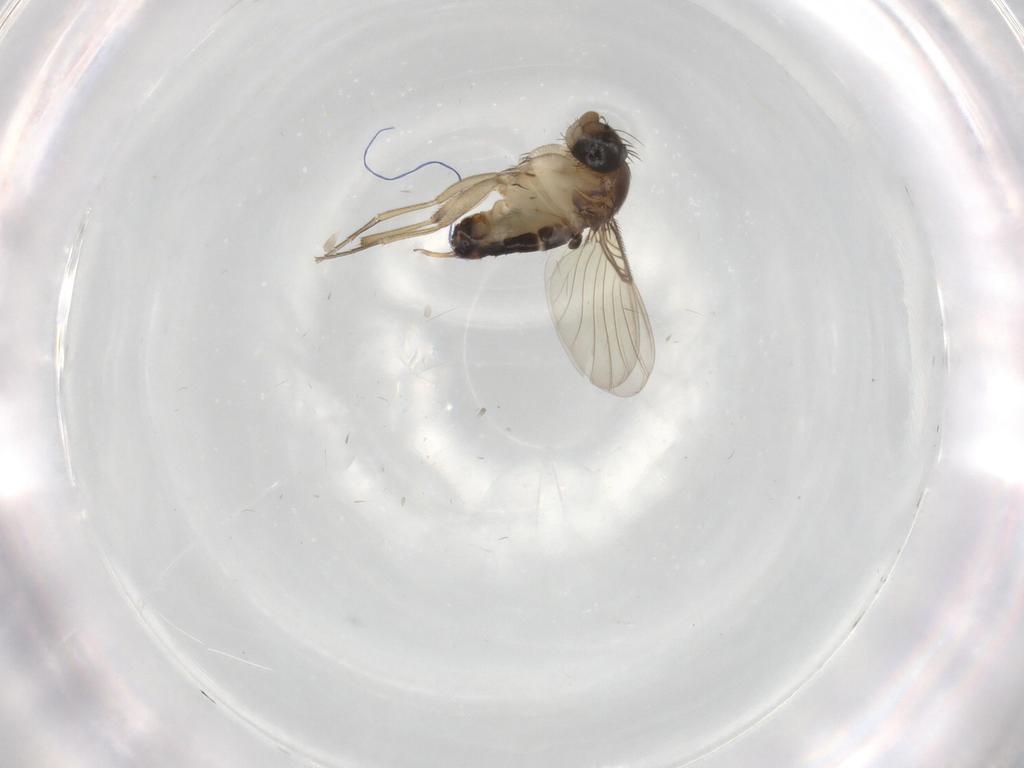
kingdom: Animalia
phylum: Arthropoda
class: Insecta
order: Diptera
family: Phoridae
